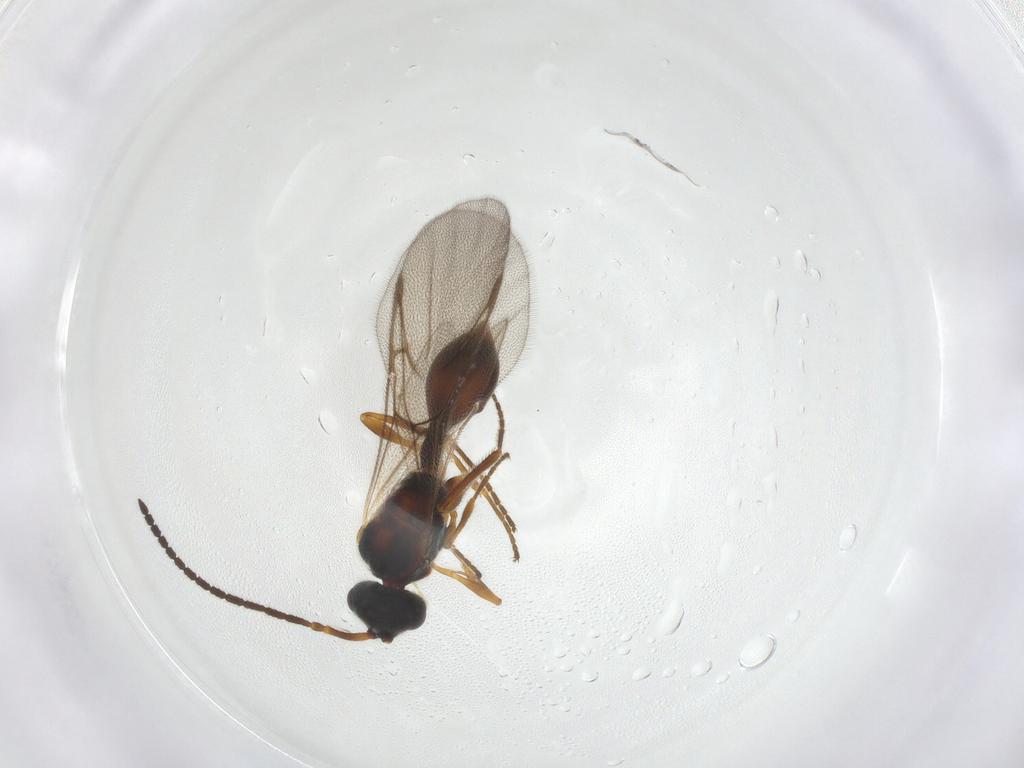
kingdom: Animalia
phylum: Arthropoda
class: Insecta
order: Hymenoptera
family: Diapriidae
